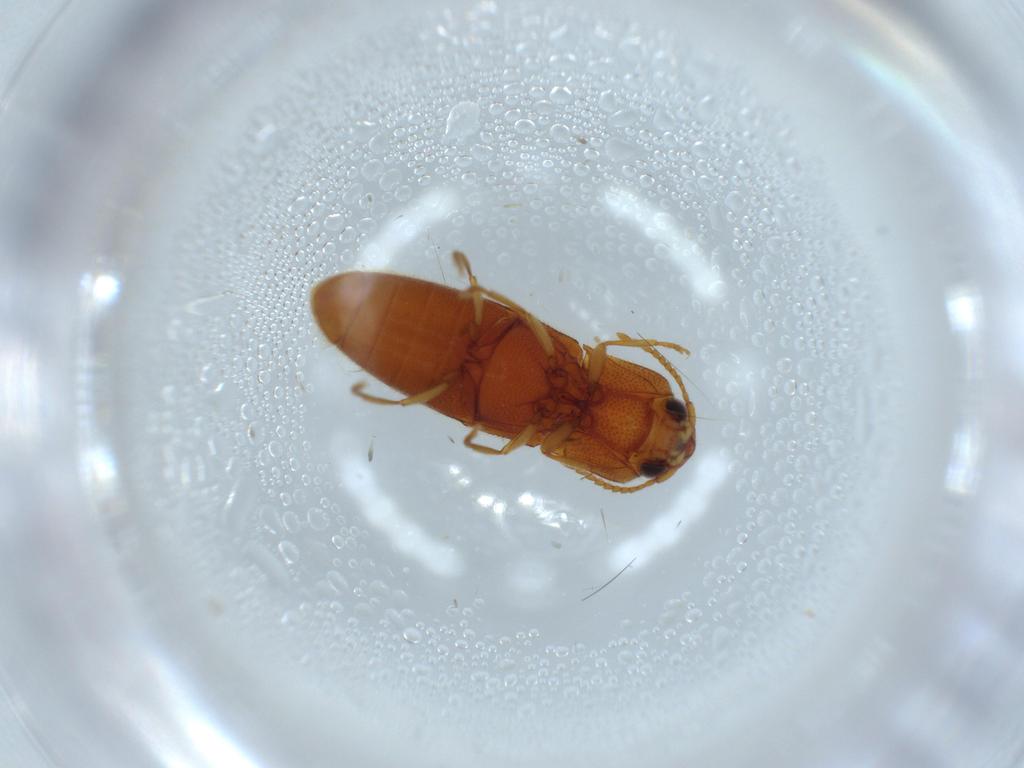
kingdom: Animalia
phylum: Arthropoda
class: Insecta
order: Coleoptera
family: Elateridae
